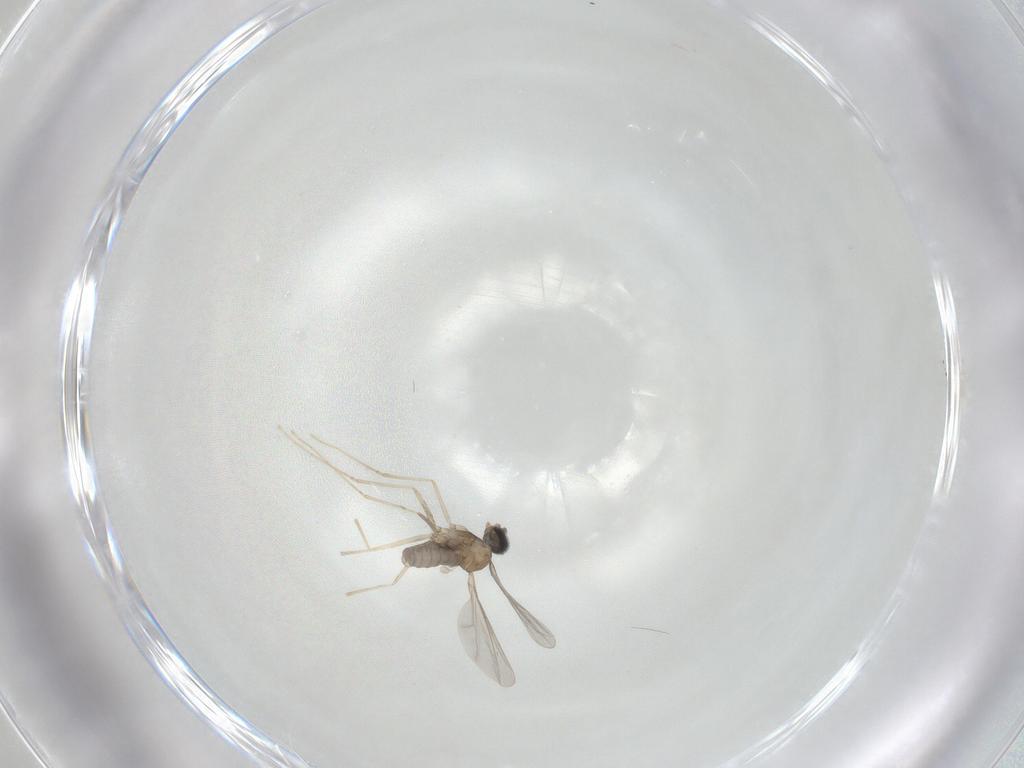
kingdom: Animalia
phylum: Arthropoda
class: Insecta
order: Diptera
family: Cecidomyiidae
